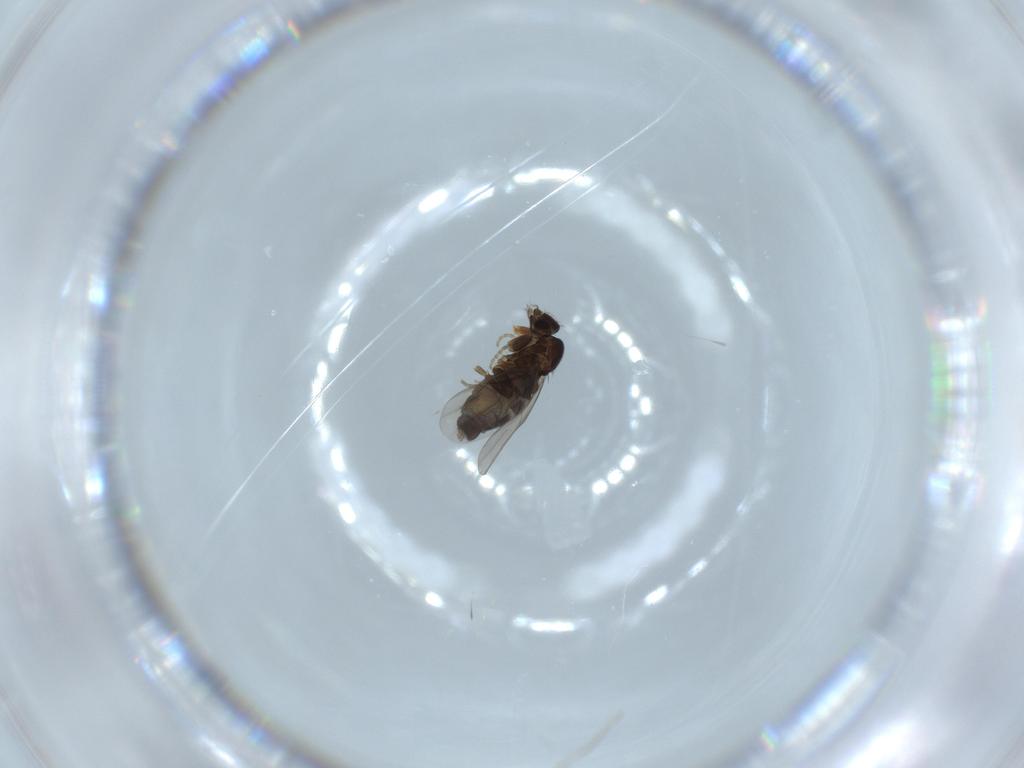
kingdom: Animalia
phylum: Arthropoda
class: Insecta
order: Diptera
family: Phoridae
